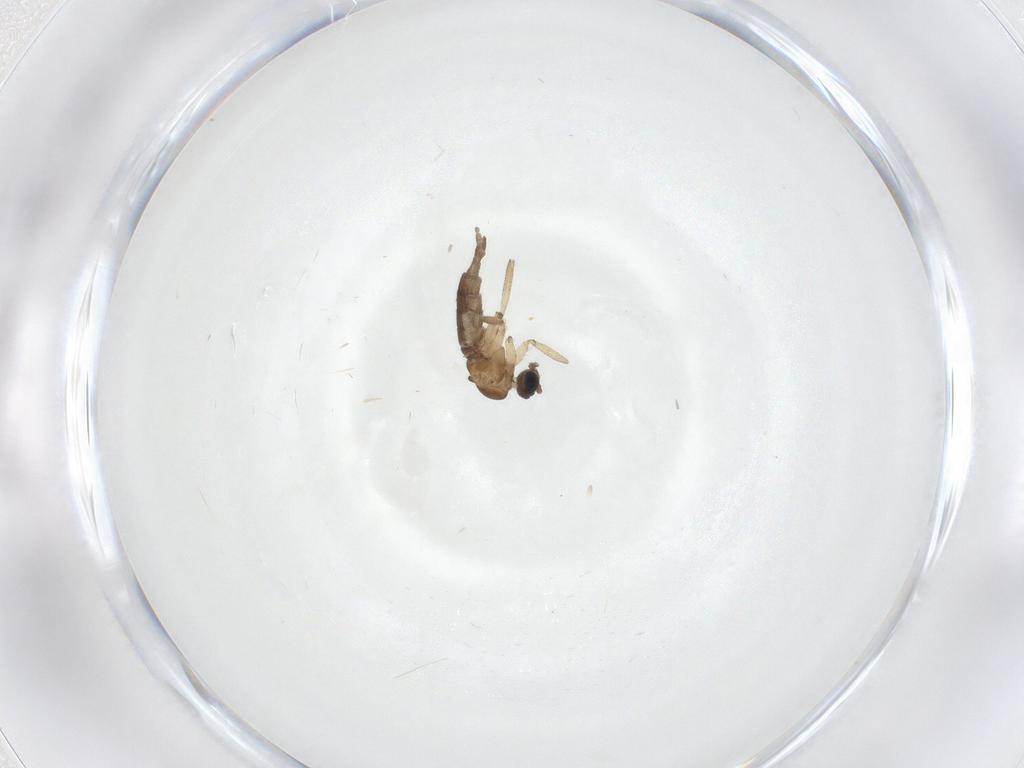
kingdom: Animalia
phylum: Arthropoda
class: Insecta
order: Diptera
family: Sciaridae
